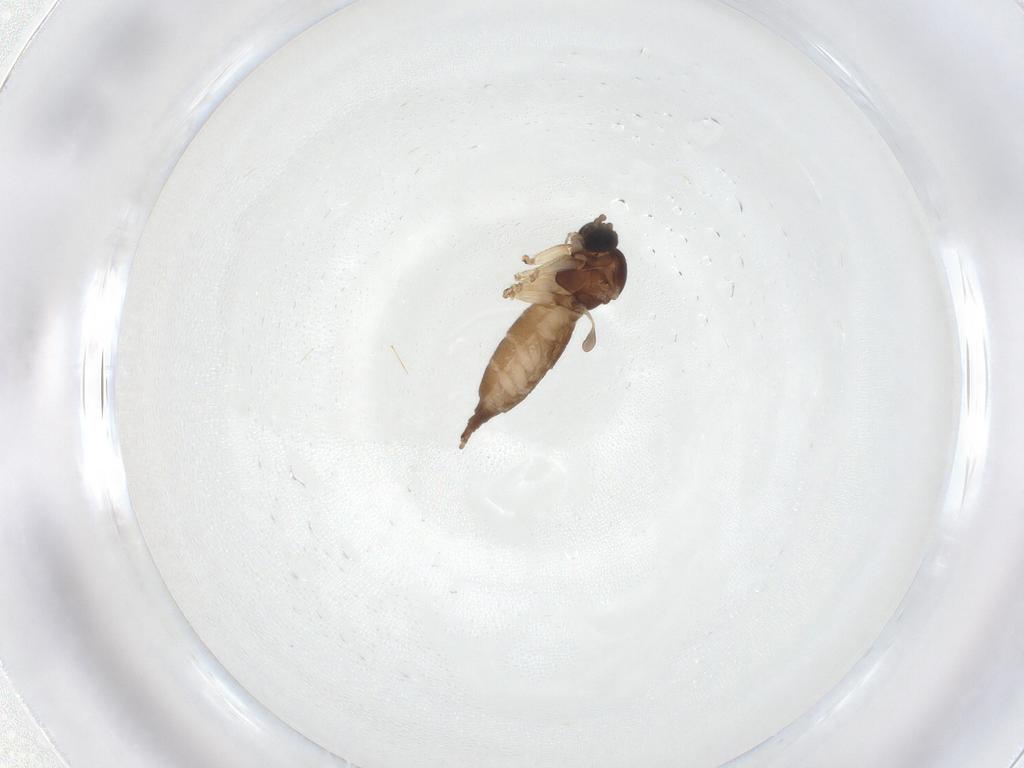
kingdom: Animalia
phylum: Arthropoda
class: Insecta
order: Diptera
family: Sciaridae
